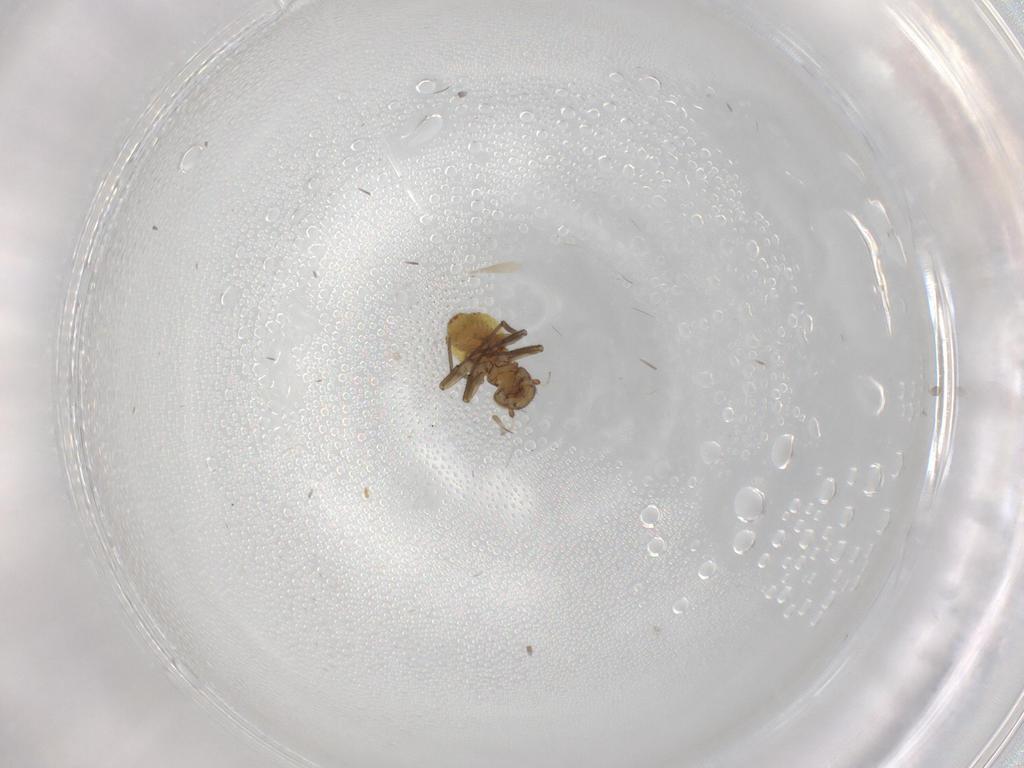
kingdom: Animalia
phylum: Arthropoda
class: Insecta
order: Psocodea
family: Philotarsidae
